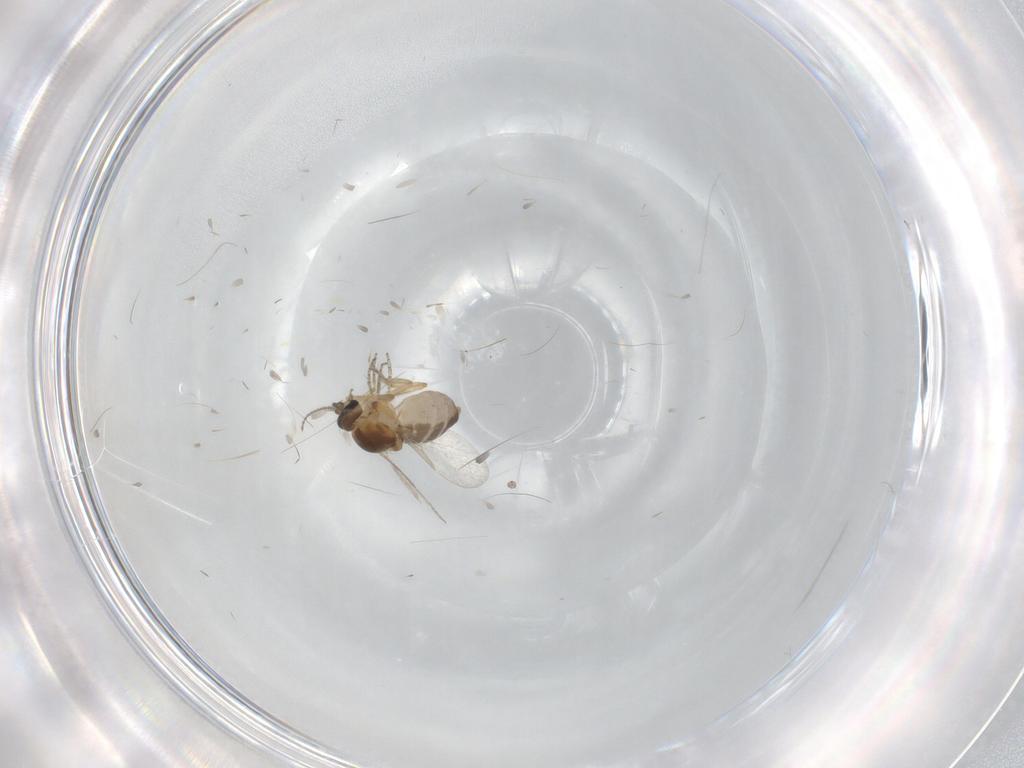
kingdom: Animalia
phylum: Arthropoda
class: Insecta
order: Diptera
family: Ceratopogonidae
